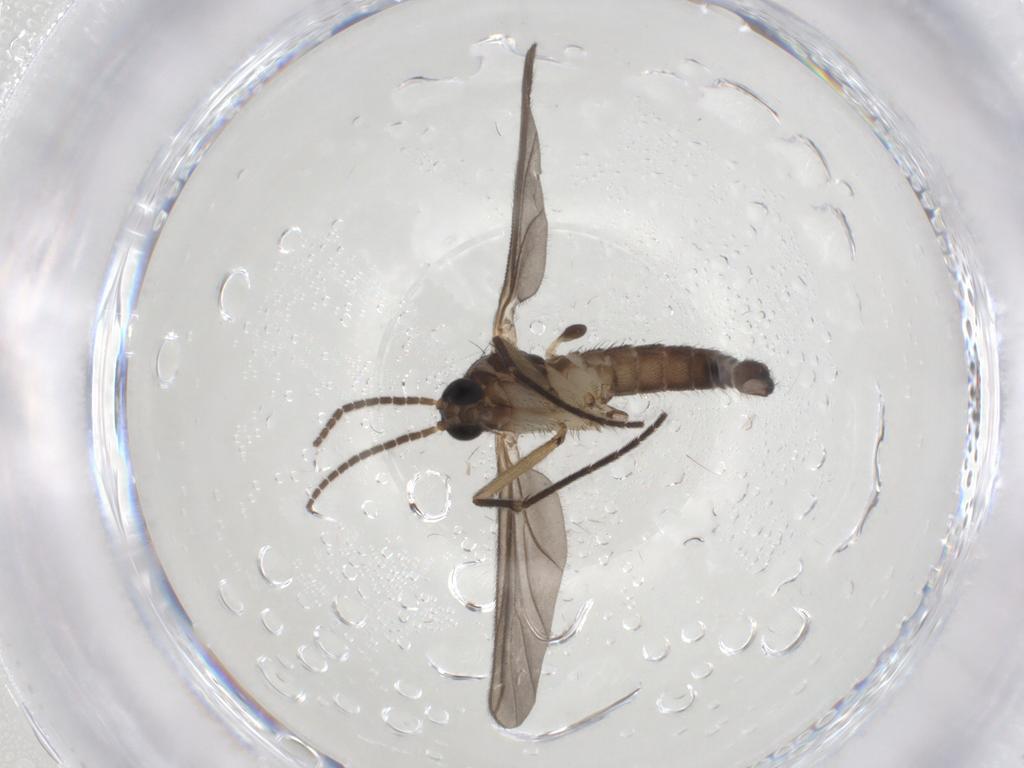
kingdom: Animalia
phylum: Arthropoda
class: Insecta
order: Diptera
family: Sciaridae
